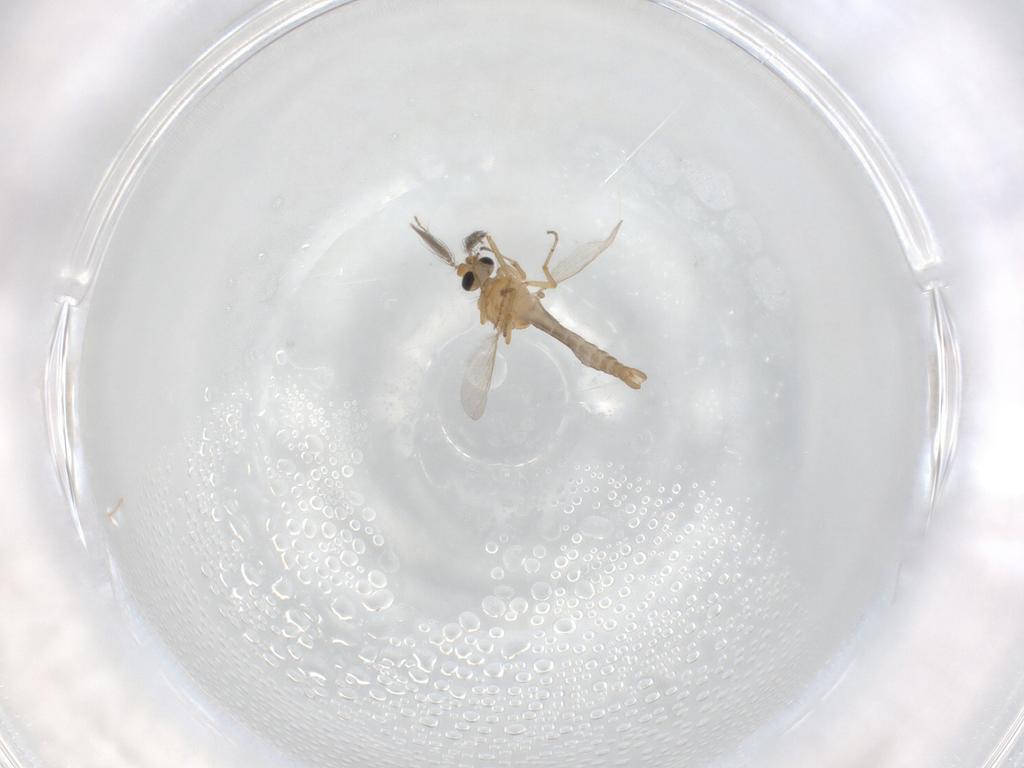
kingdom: Animalia
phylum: Arthropoda
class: Insecta
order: Diptera
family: Ceratopogonidae
